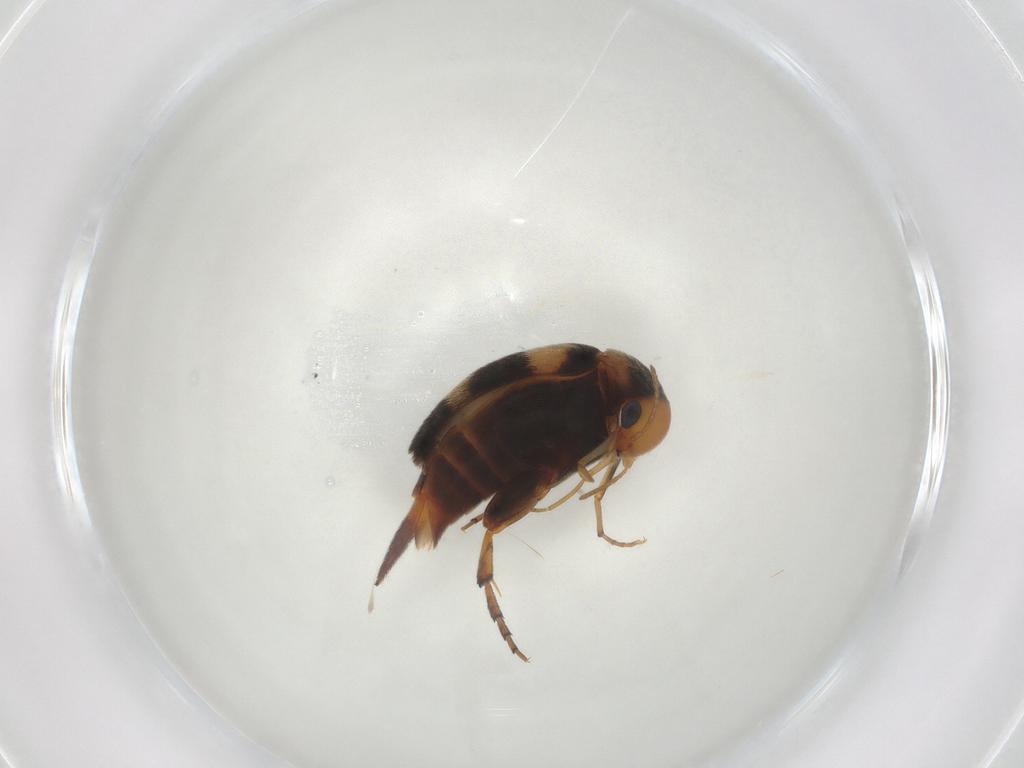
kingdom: Animalia
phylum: Arthropoda
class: Insecta
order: Coleoptera
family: Mordellidae
